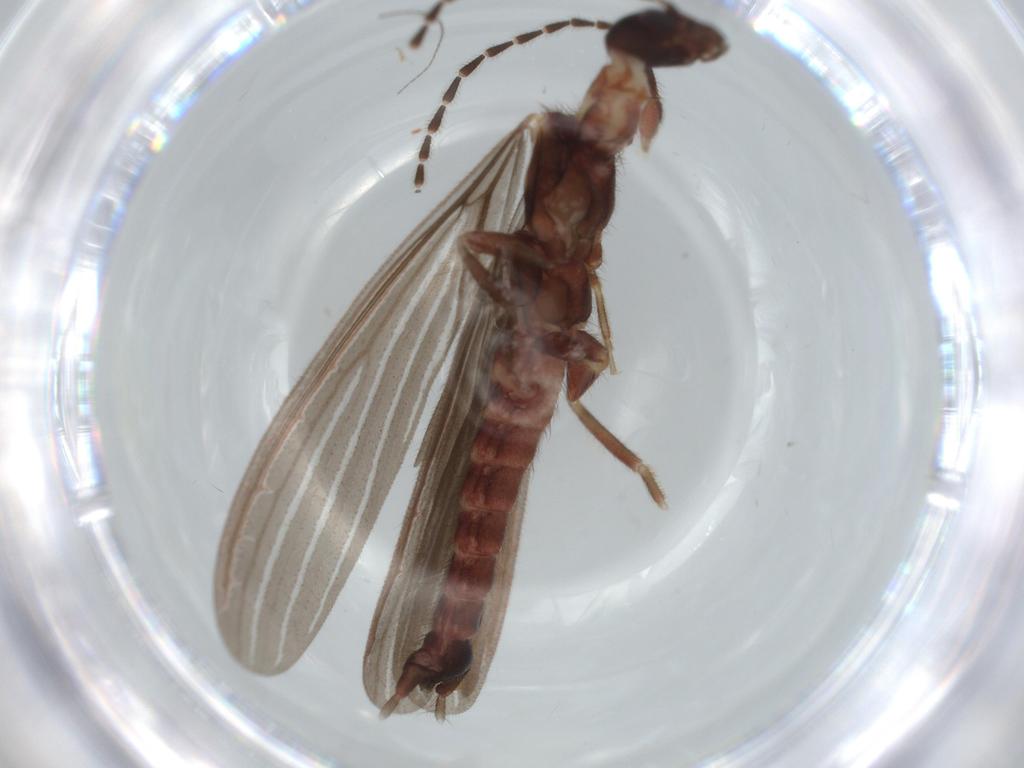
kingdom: Animalia
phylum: Arthropoda
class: Insecta
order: Embioptera
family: Anisembiidae
